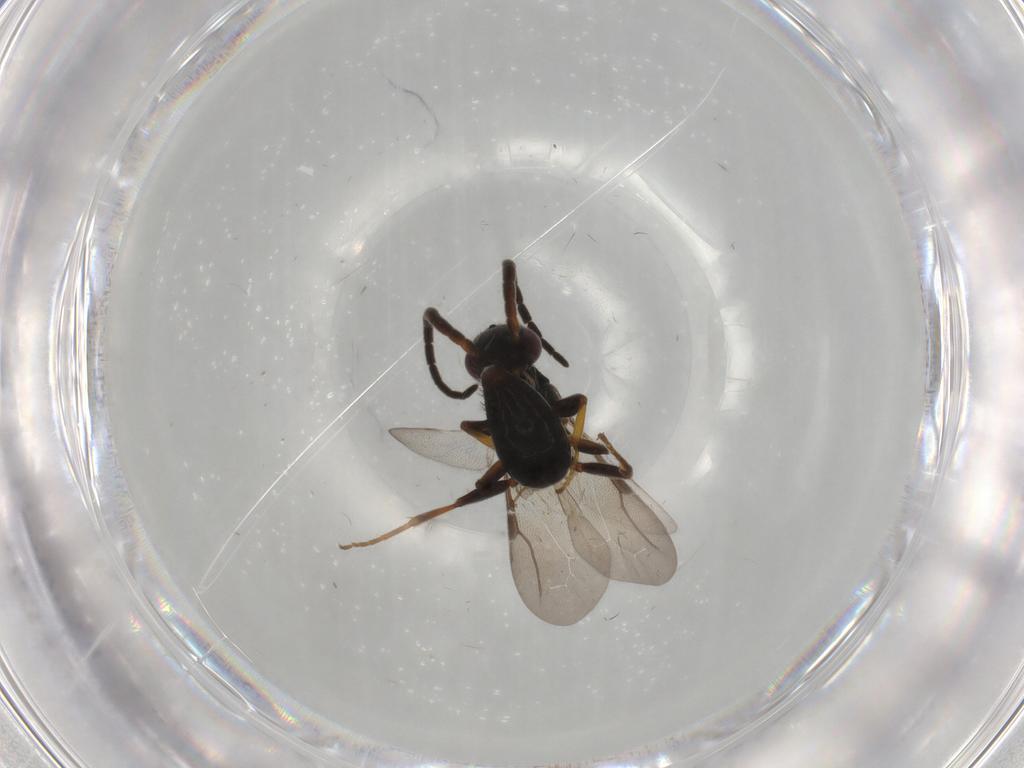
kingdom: Animalia
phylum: Arthropoda
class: Insecta
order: Hymenoptera
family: Bethylidae
